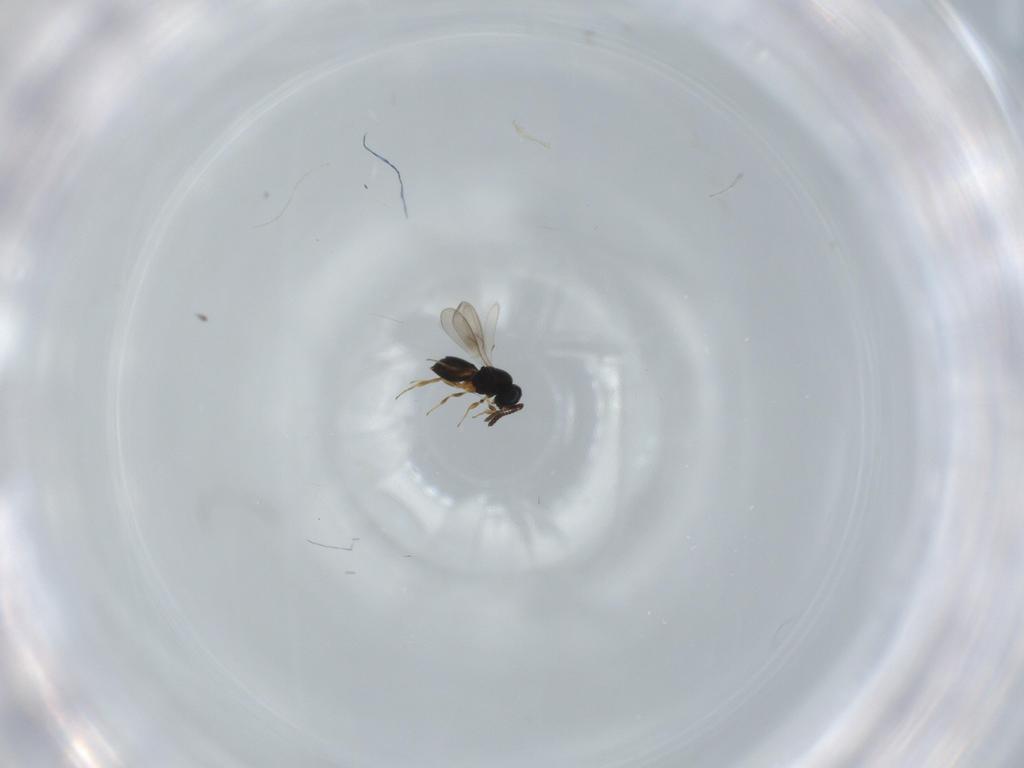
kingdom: Animalia
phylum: Arthropoda
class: Insecta
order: Hymenoptera
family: Scelionidae
